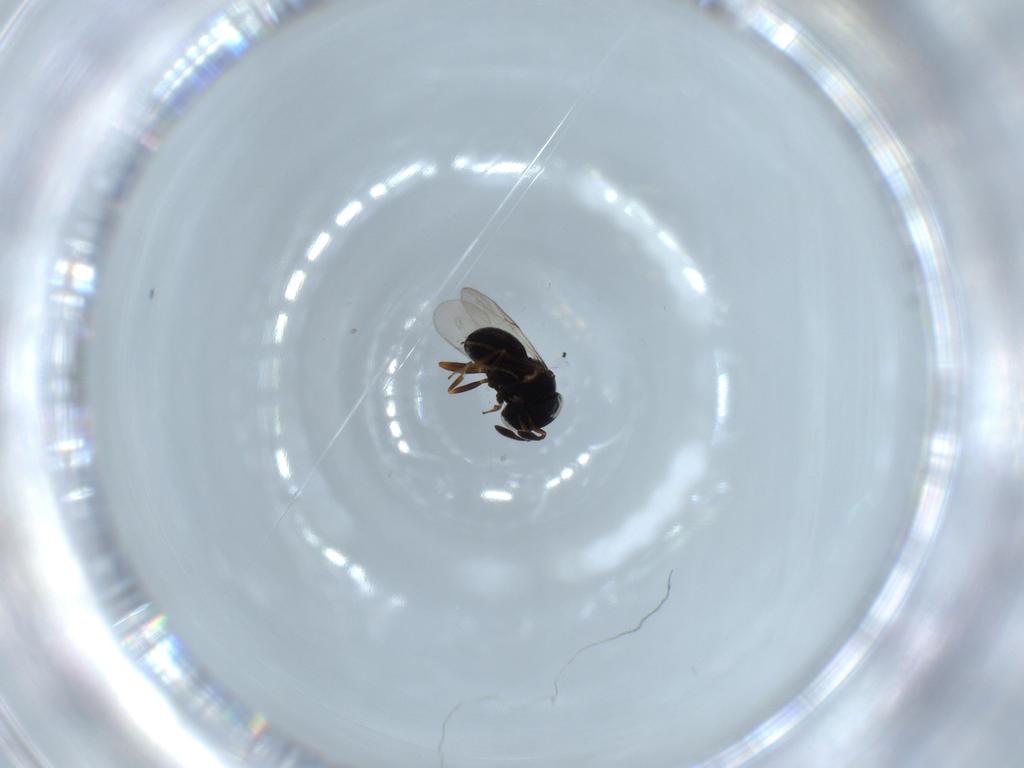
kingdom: Animalia
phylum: Arthropoda
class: Insecta
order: Hymenoptera
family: Scelionidae
